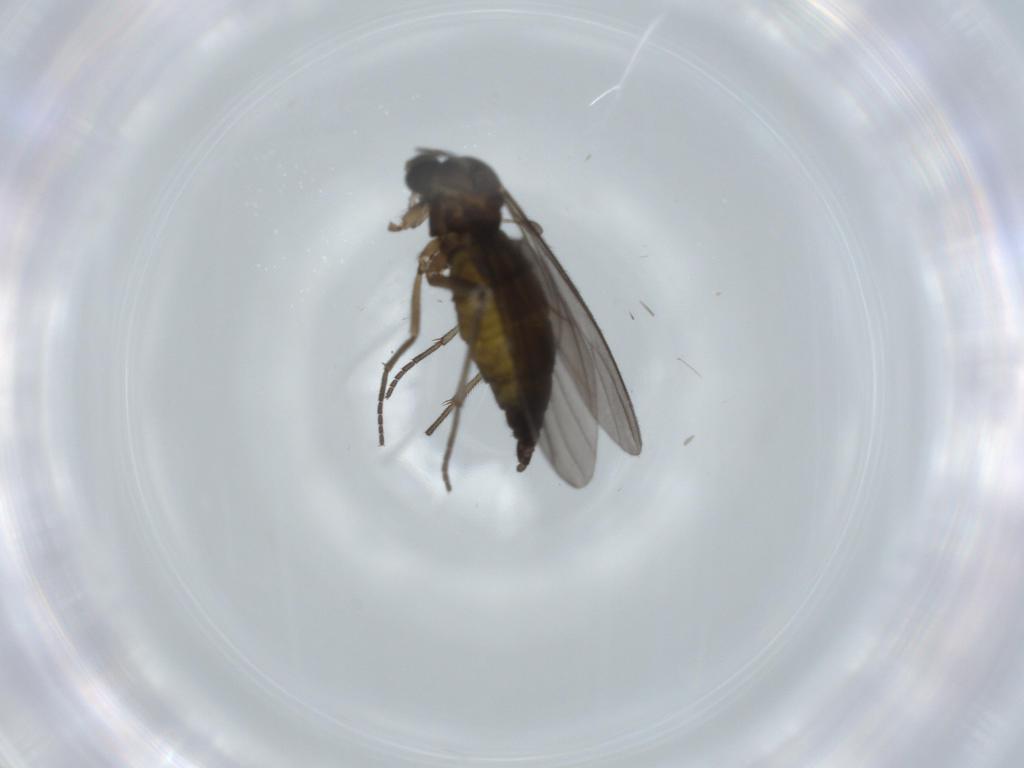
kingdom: Animalia
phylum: Arthropoda
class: Insecta
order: Diptera
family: Sciaridae
